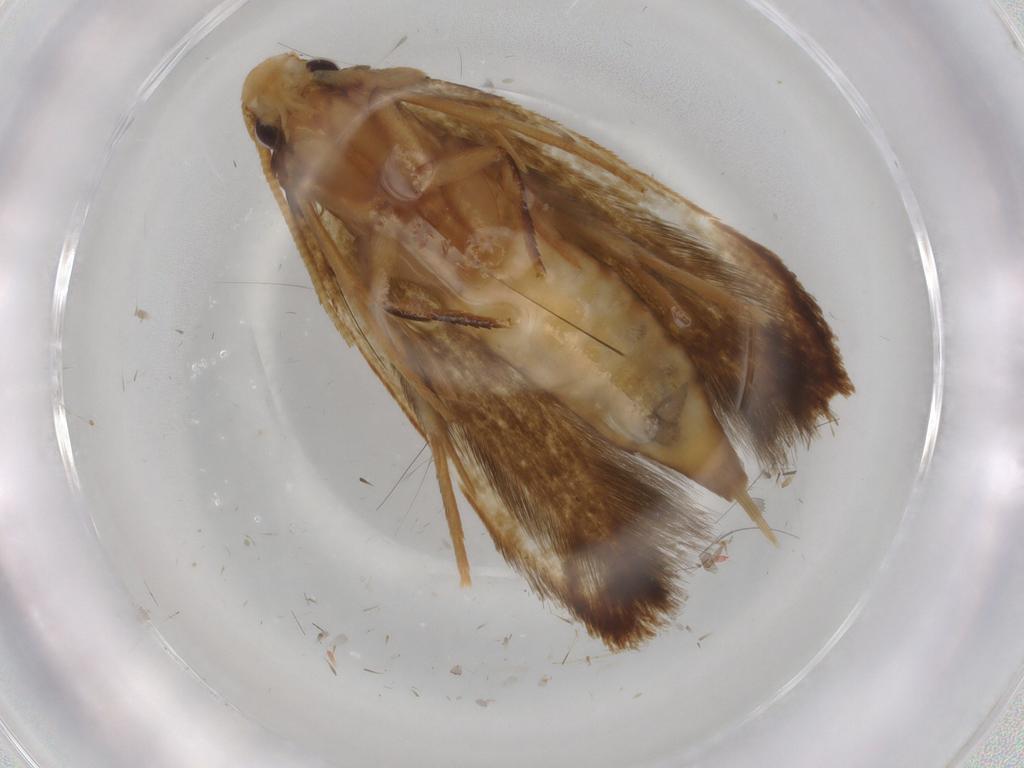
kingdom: Animalia
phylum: Arthropoda
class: Insecta
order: Lepidoptera
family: Tineidae
